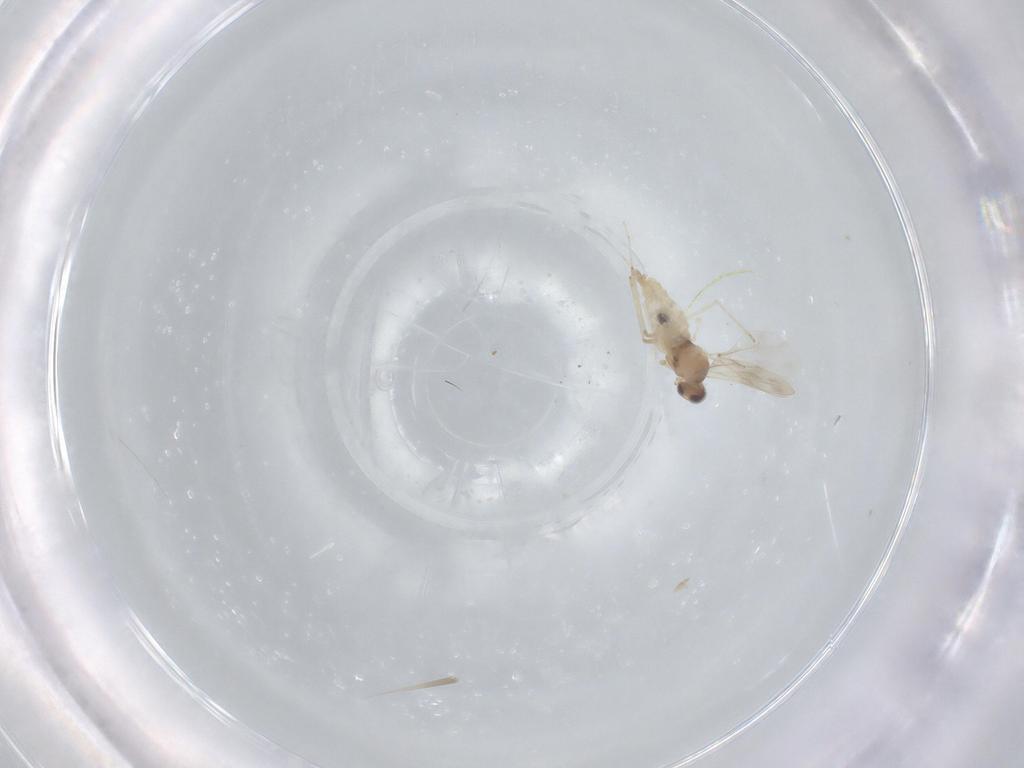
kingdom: Animalia
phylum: Arthropoda
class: Insecta
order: Diptera
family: Cecidomyiidae
